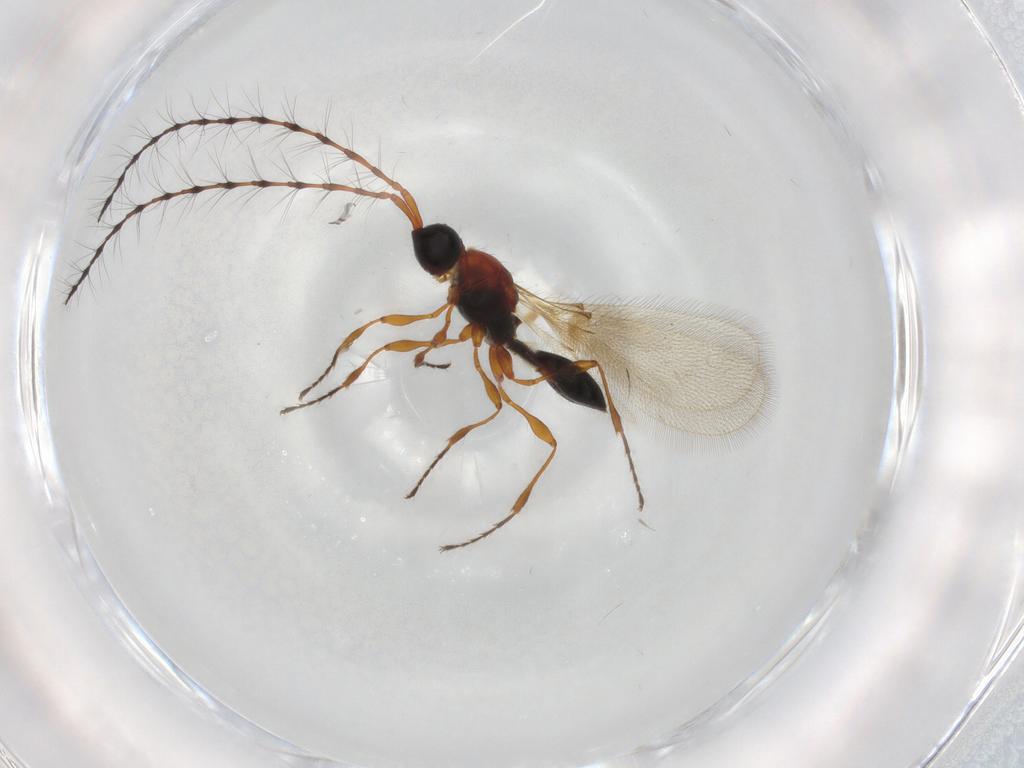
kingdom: Animalia
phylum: Arthropoda
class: Insecta
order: Hymenoptera
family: Diapriidae
